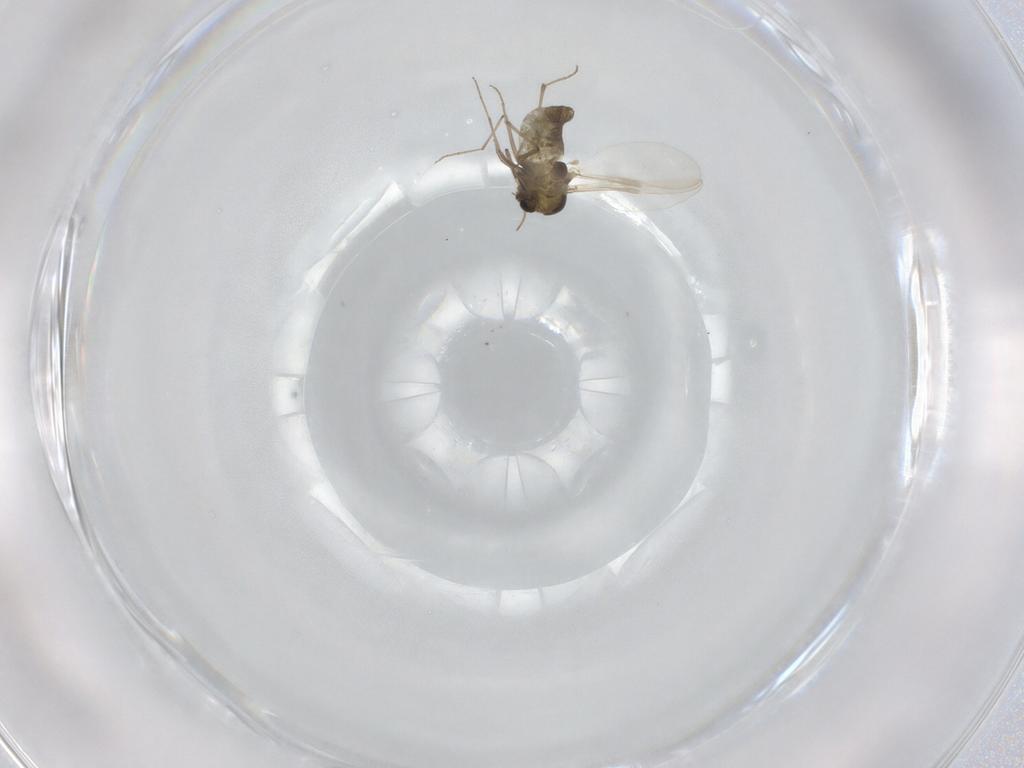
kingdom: Animalia
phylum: Arthropoda
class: Insecta
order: Diptera
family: Chironomidae
